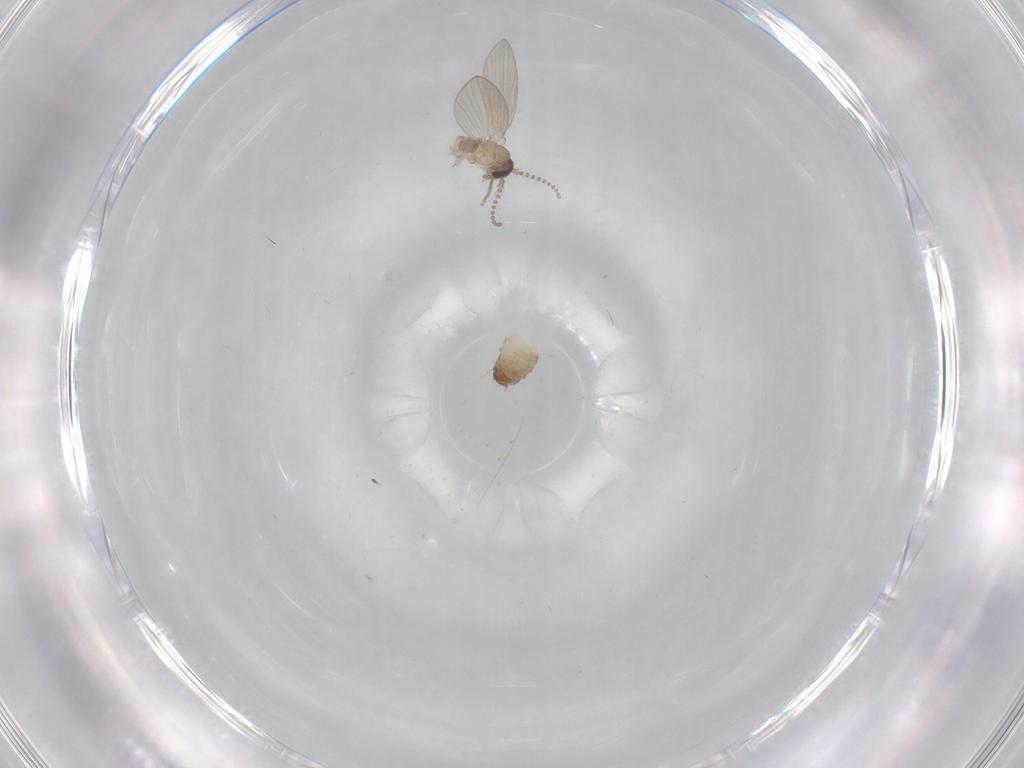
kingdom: Animalia
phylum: Arthropoda
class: Insecta
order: Diptera
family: Psychodidae
